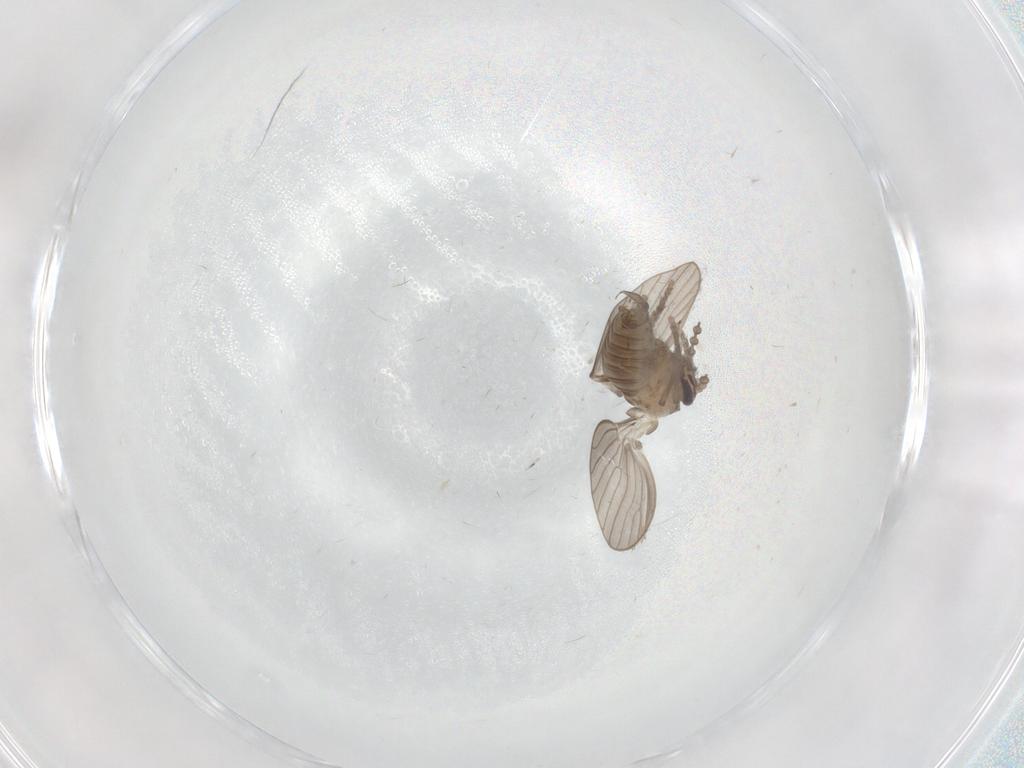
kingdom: Animalia
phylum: Arthropoda
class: Insecta
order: Diptera
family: Psychodidae
